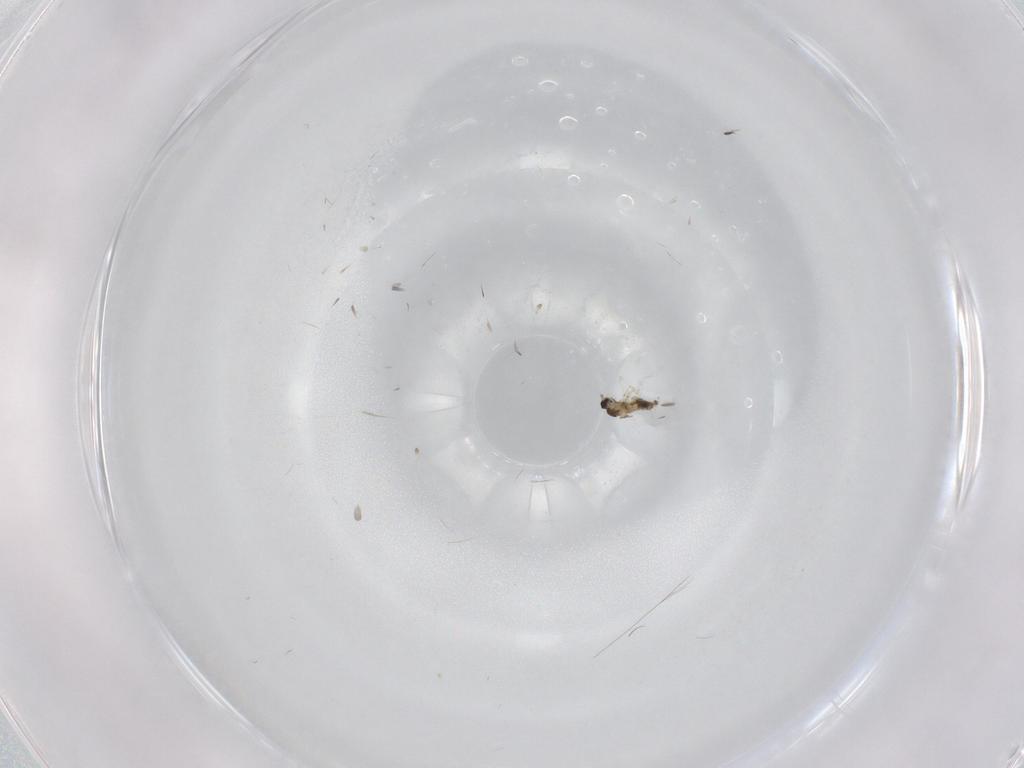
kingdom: Animalia
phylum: Arthropoda
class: Insecta
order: Diptera
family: Cecidomyiidae
